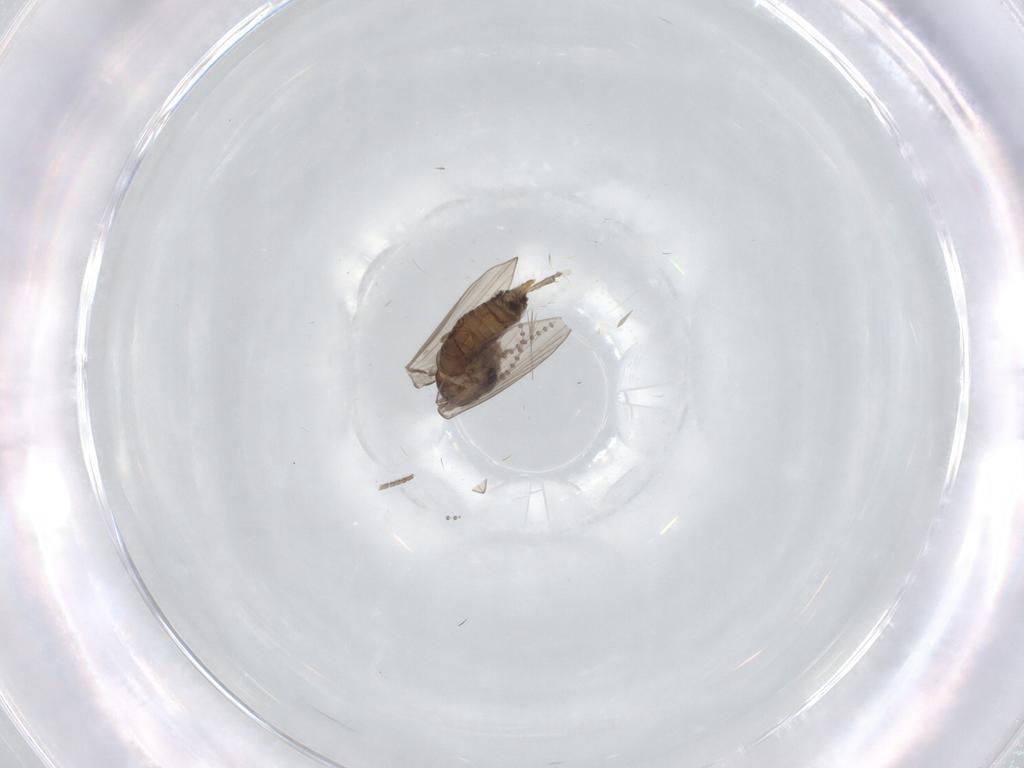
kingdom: Animalia
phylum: Arthropoda
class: Insecta
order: Diptera
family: Psychodidae
